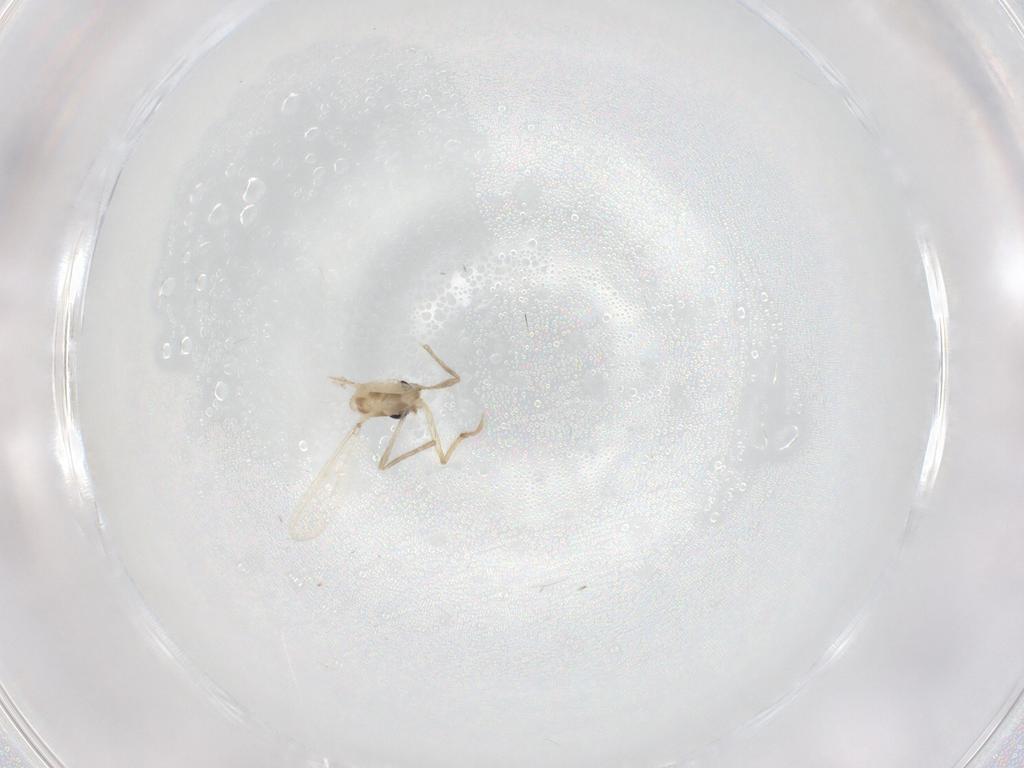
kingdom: Animalia
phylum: Arthropoda
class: Insecta
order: Diptera
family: Chironomidae
